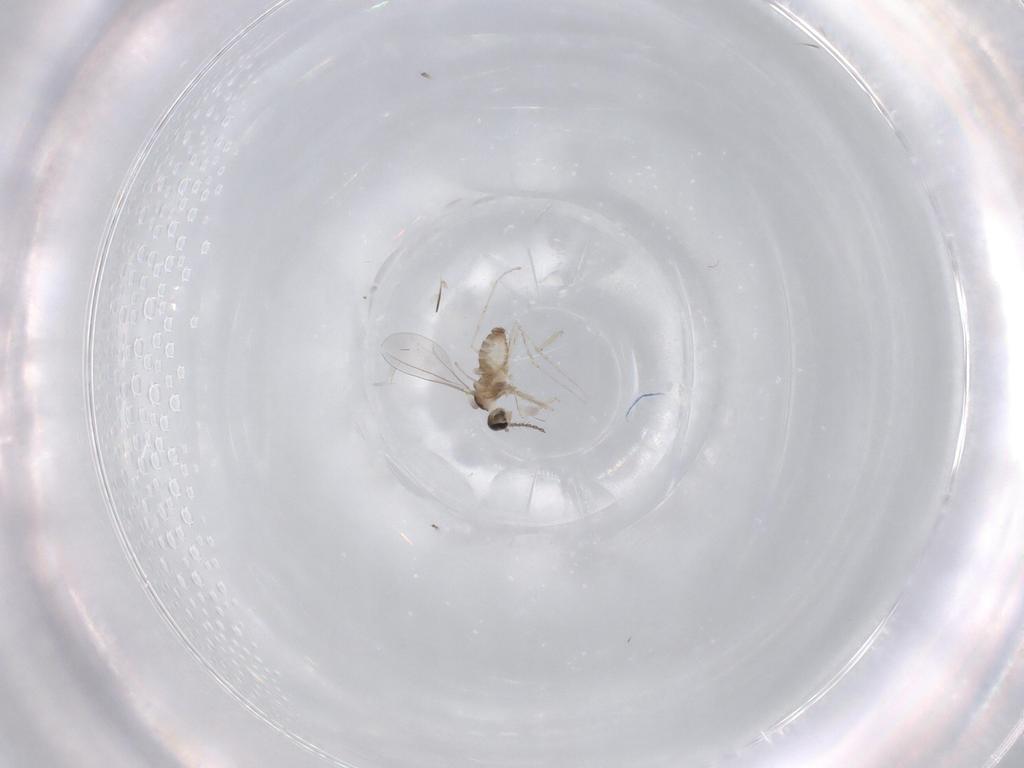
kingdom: Animalia
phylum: Arthropoda
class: Insecta
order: Diptera
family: Cecidomyiidae
